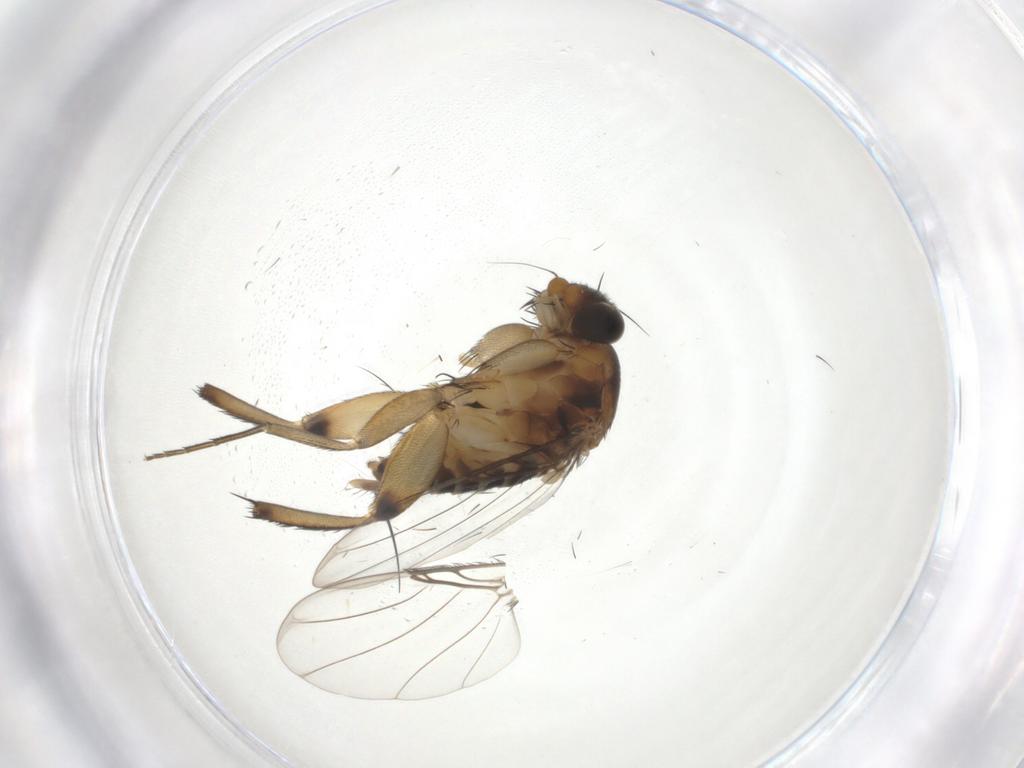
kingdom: Animalia
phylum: Arthropoda
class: Insecta
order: Diptera
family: Phoridae
